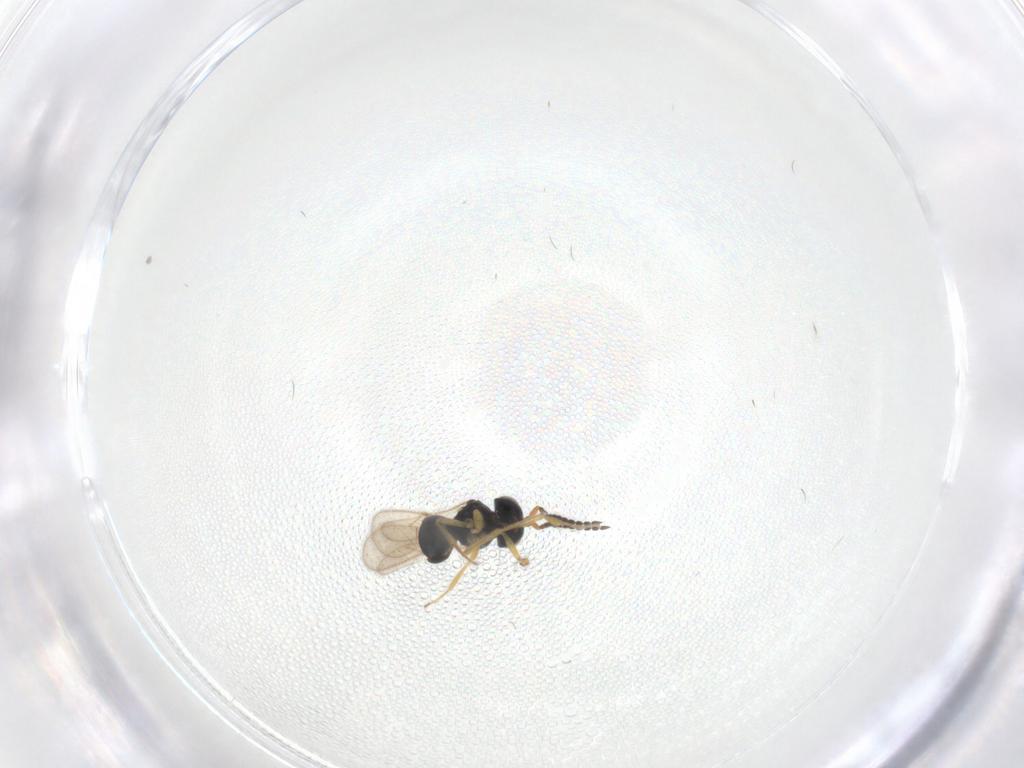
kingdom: Animalia
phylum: Arthropoda
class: Insecta
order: Hymenoptera
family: Scelionidae
